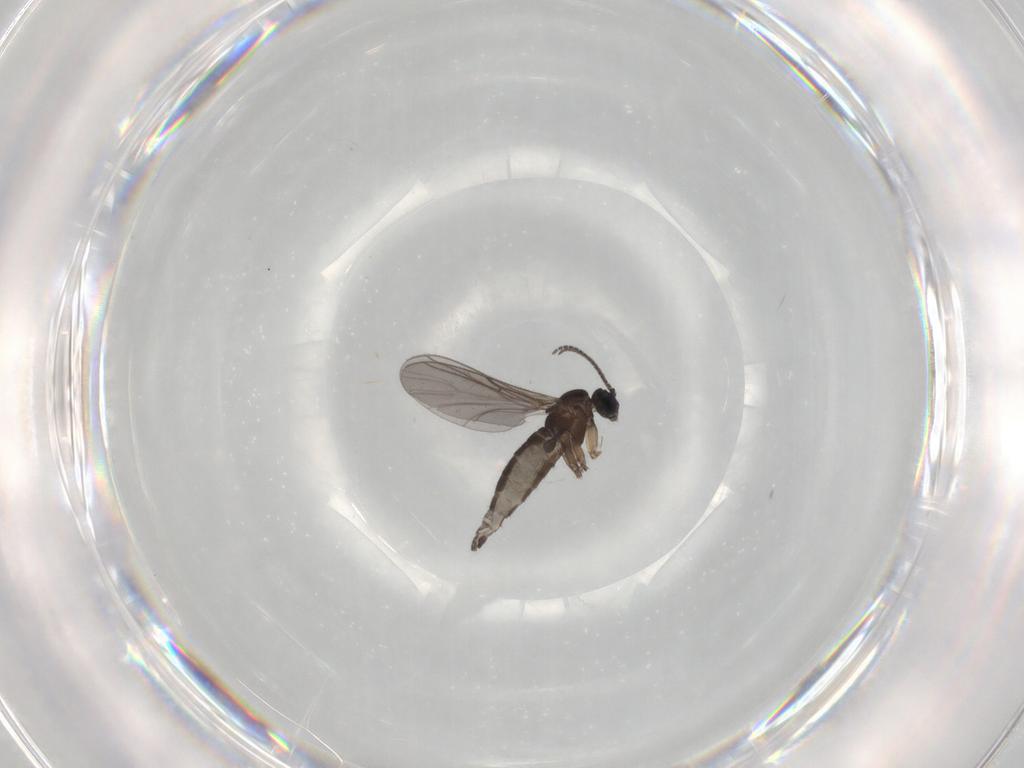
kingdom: Animalia
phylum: Arthropoda
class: Insecta
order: Diptera
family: Sciaridae
